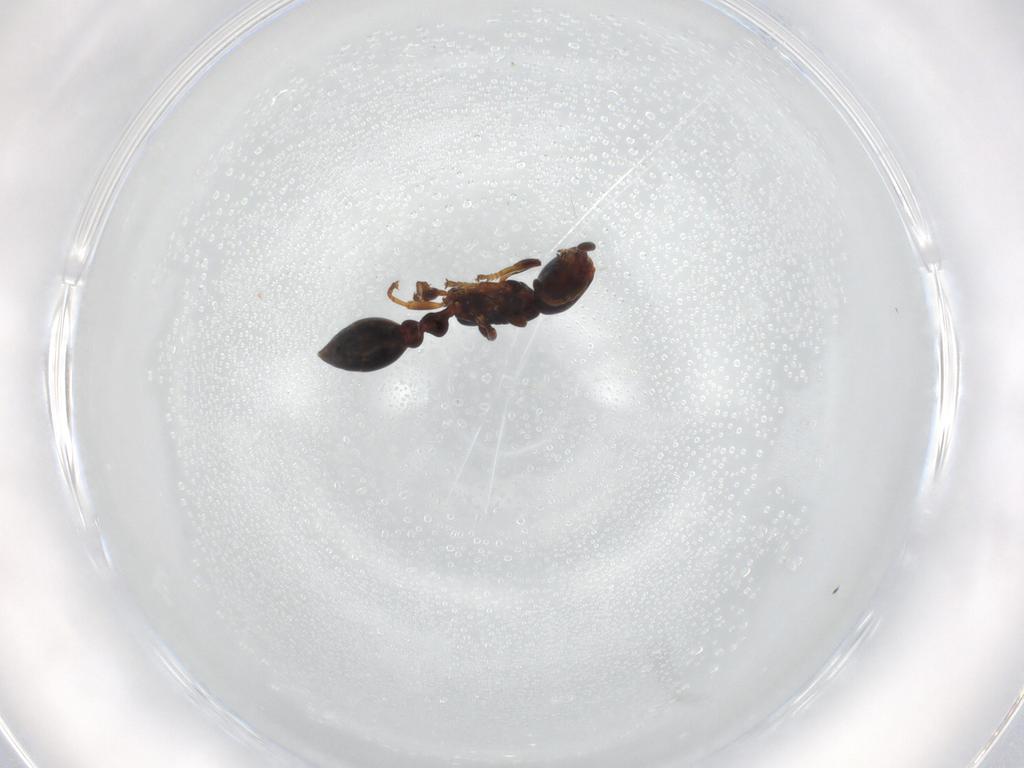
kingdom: Animalia
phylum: Arthropoda
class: Insecta
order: Hymenoptera
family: Formicidae
